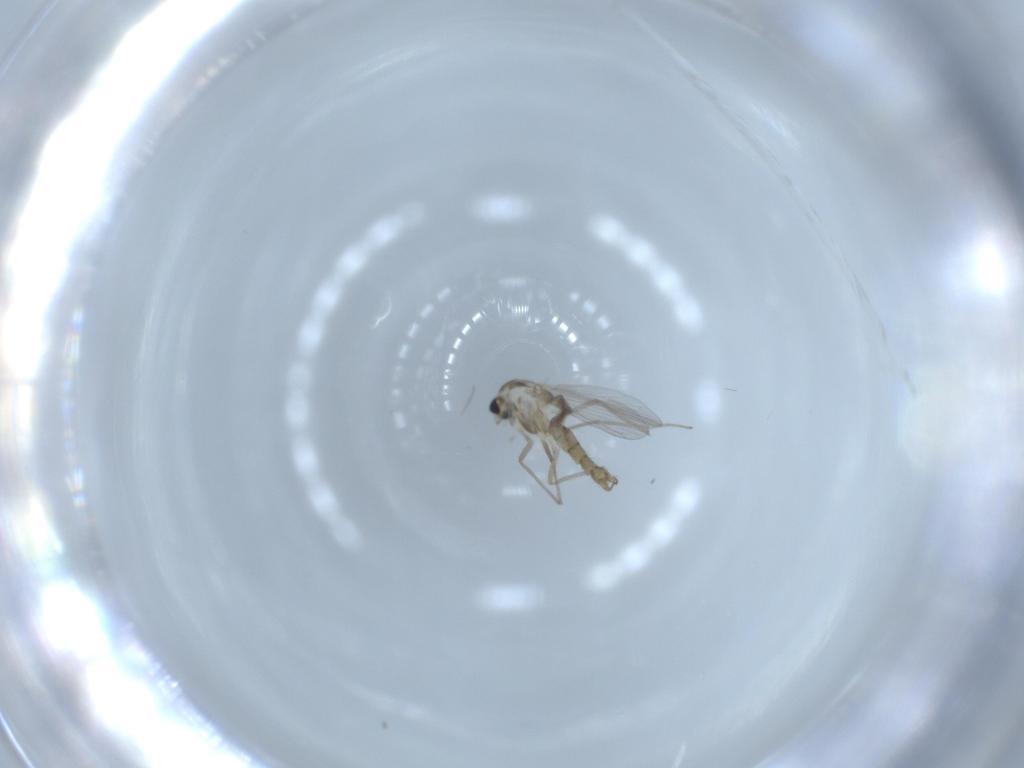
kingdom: Animalia
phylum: Arthropoda
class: Insecta
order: Diptera
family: Chironomidae
